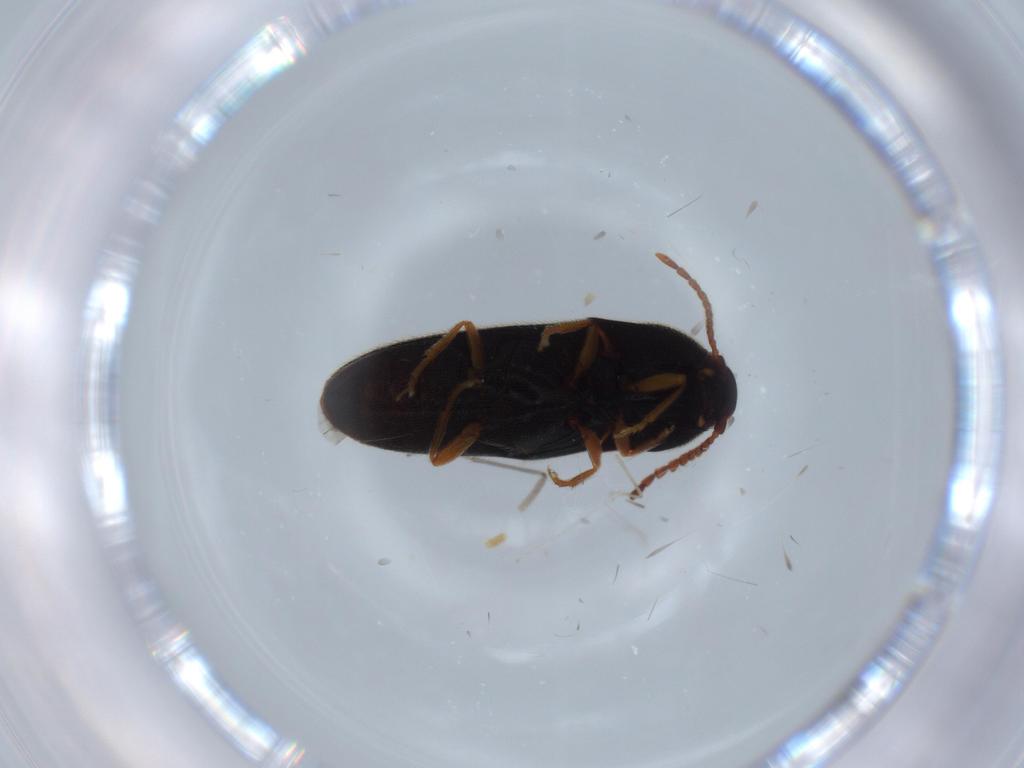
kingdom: Animalia
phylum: Arthropoda
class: Insecta
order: Coleoptera
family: Elateridae
